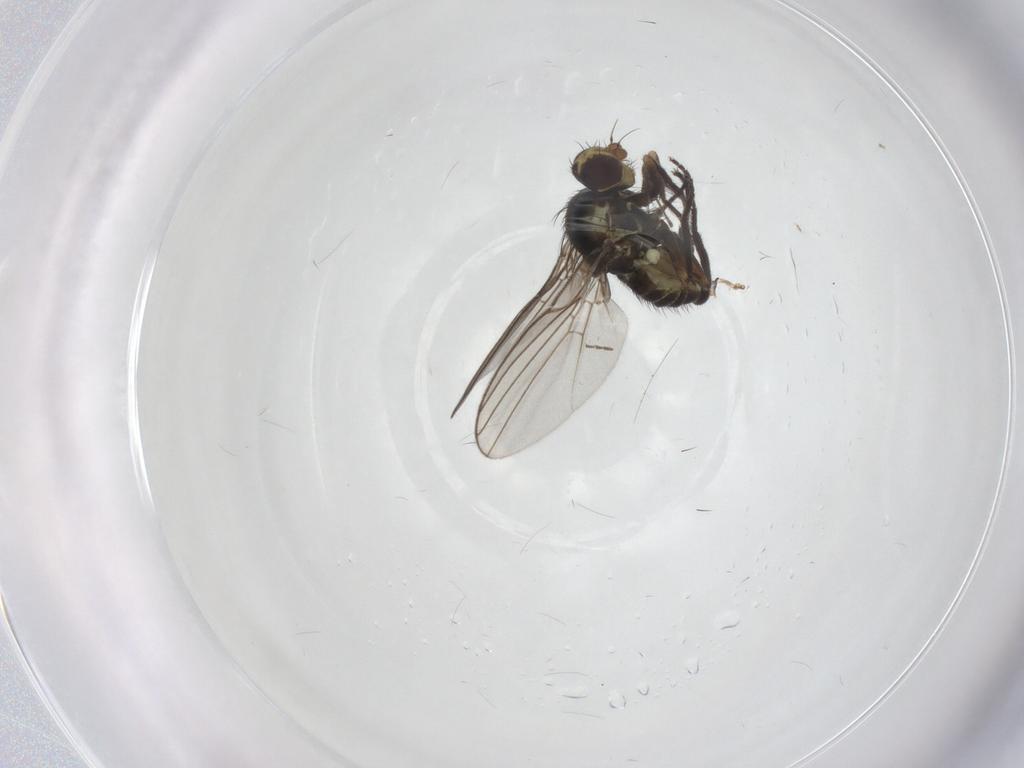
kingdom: Animalia
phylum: Arthropoda
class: Insecta
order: Diptera
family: Agromyzidae
